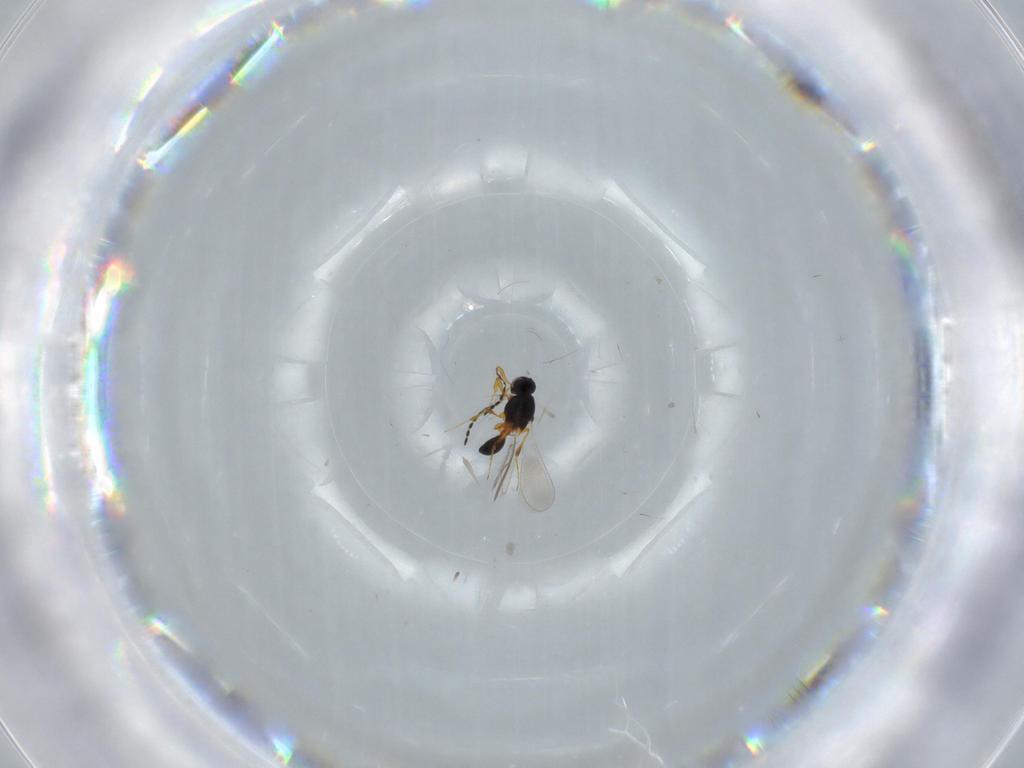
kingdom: Animalia
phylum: Arthropoda
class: Insecta
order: Hymenoptera
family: Platygastridae
